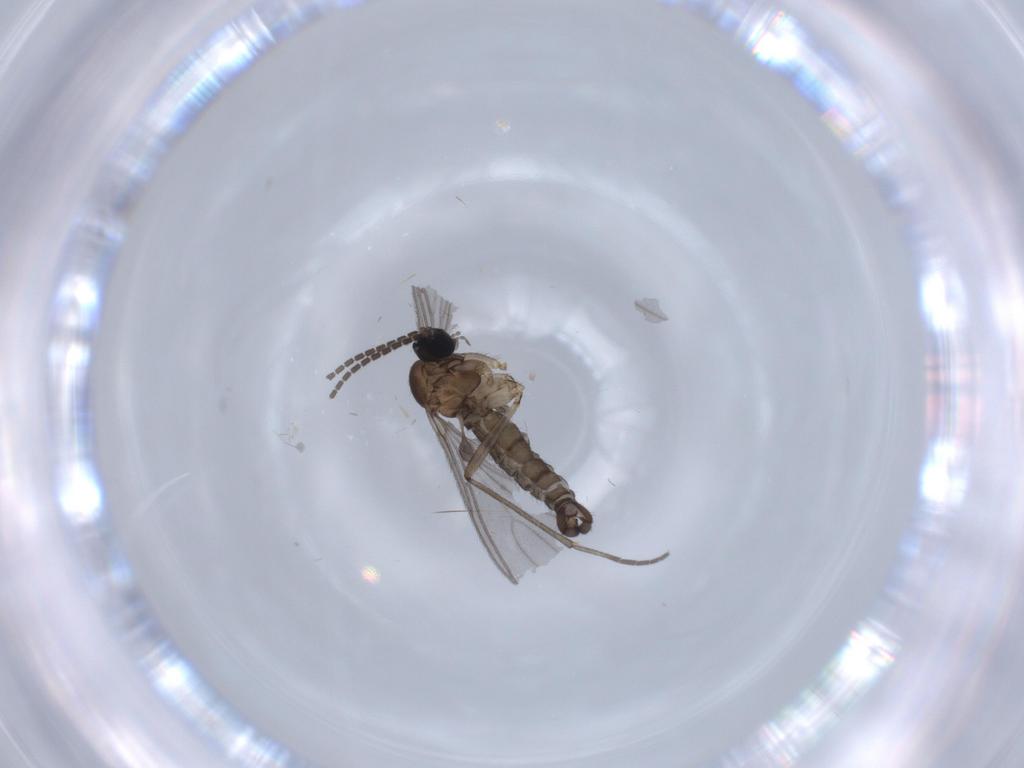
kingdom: Animalia
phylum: Arthropoda
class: Insecta
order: Diptera
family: Sciaridae
